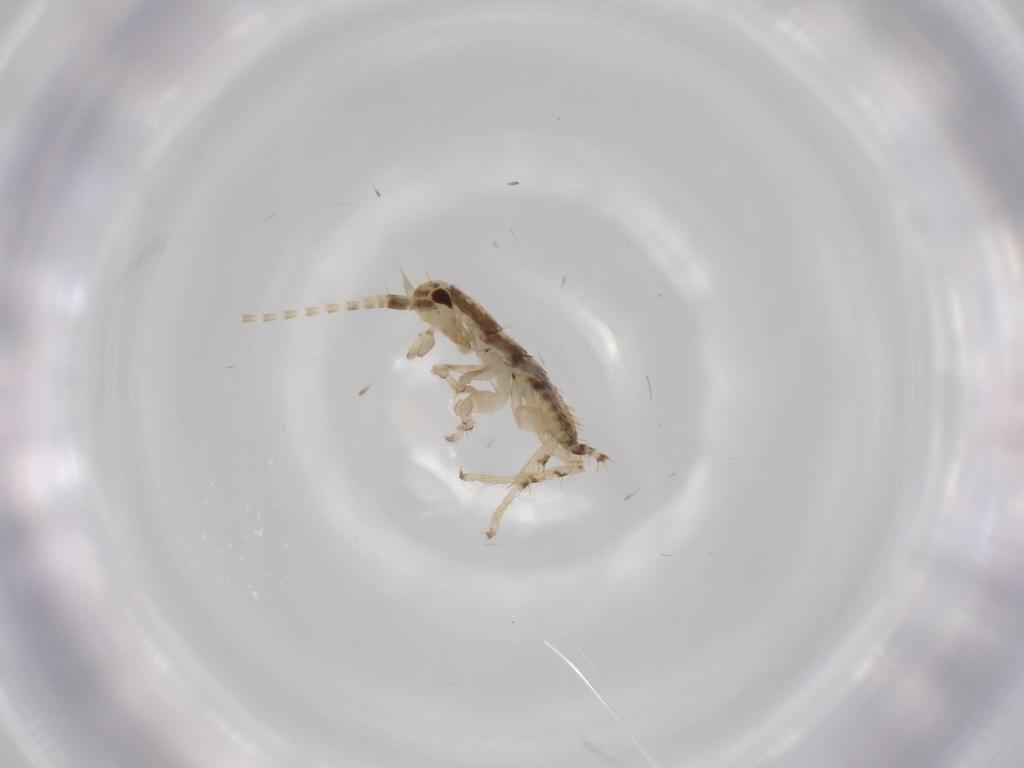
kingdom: Animalia
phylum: Arthropoda
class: Insecta
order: Blattodea
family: Ectobiidae
